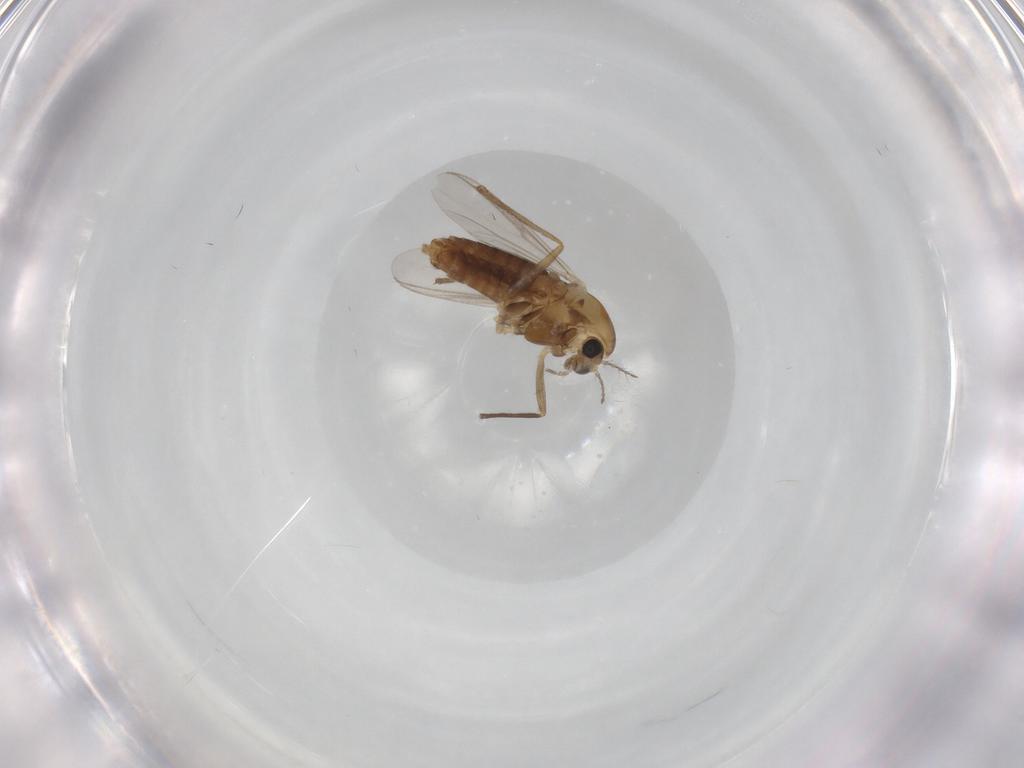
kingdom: Animalia
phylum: Arthropoda
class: Insecta
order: Diptera
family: Chironomidae
